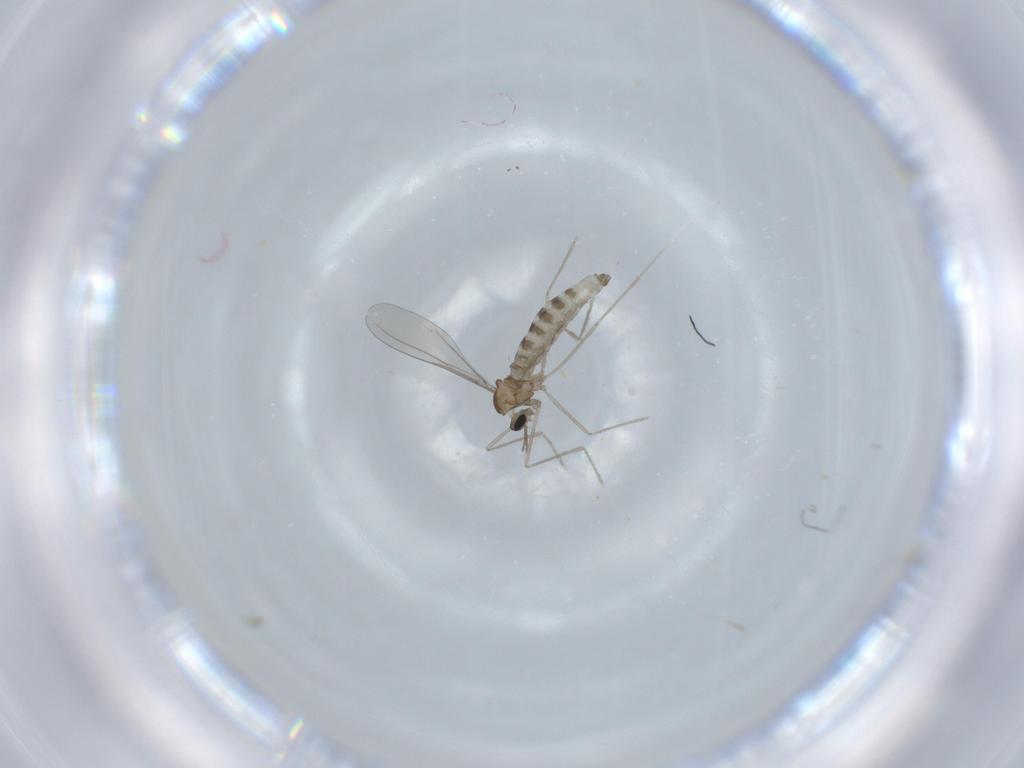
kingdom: Animalia
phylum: Arthropoda
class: Insecta
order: Diptera
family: Cecidomyiidae
